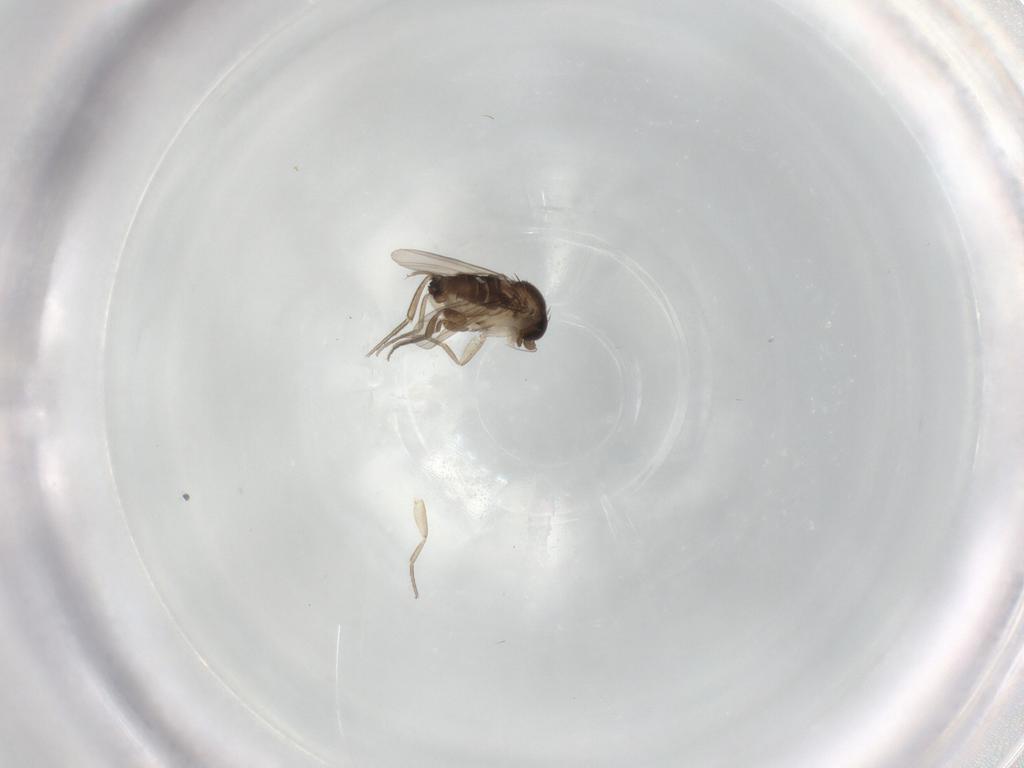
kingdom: Animalia
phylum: Arthropoda
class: Insecta
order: Diptera
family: Phoridae
